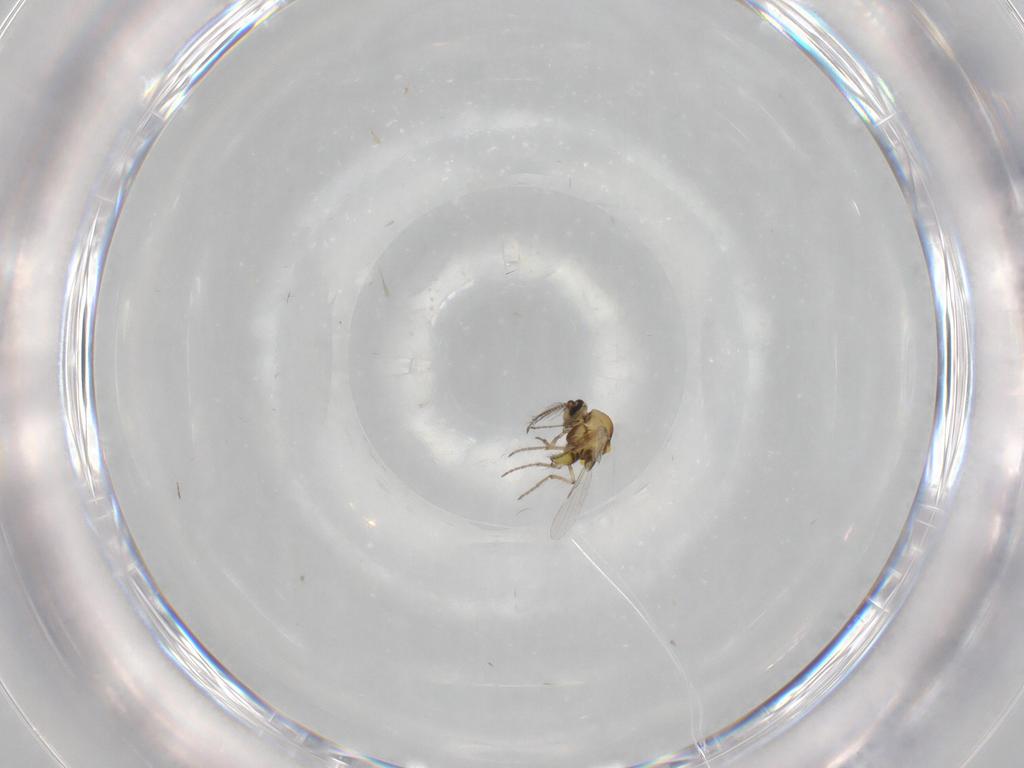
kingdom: Animalia
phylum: Arthropoda
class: Insecta
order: Diptera
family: Ceratopogonidae
